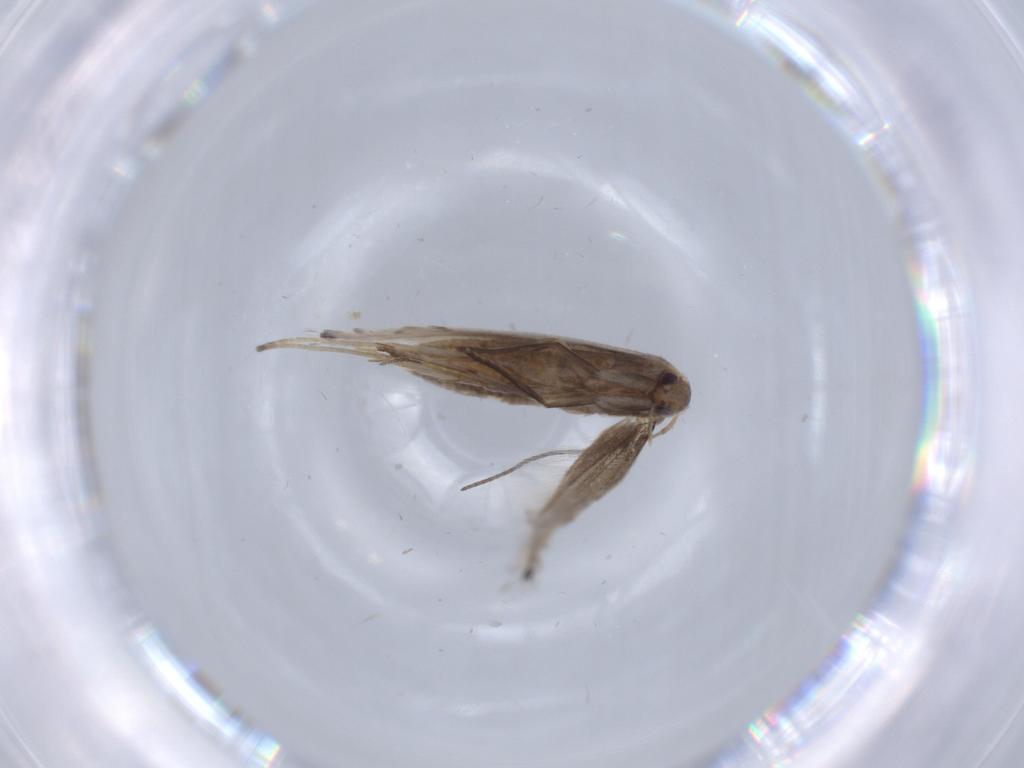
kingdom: Animalia
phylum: Arthropoda
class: Insecta
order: Lepidoptera
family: Gracillariidae
